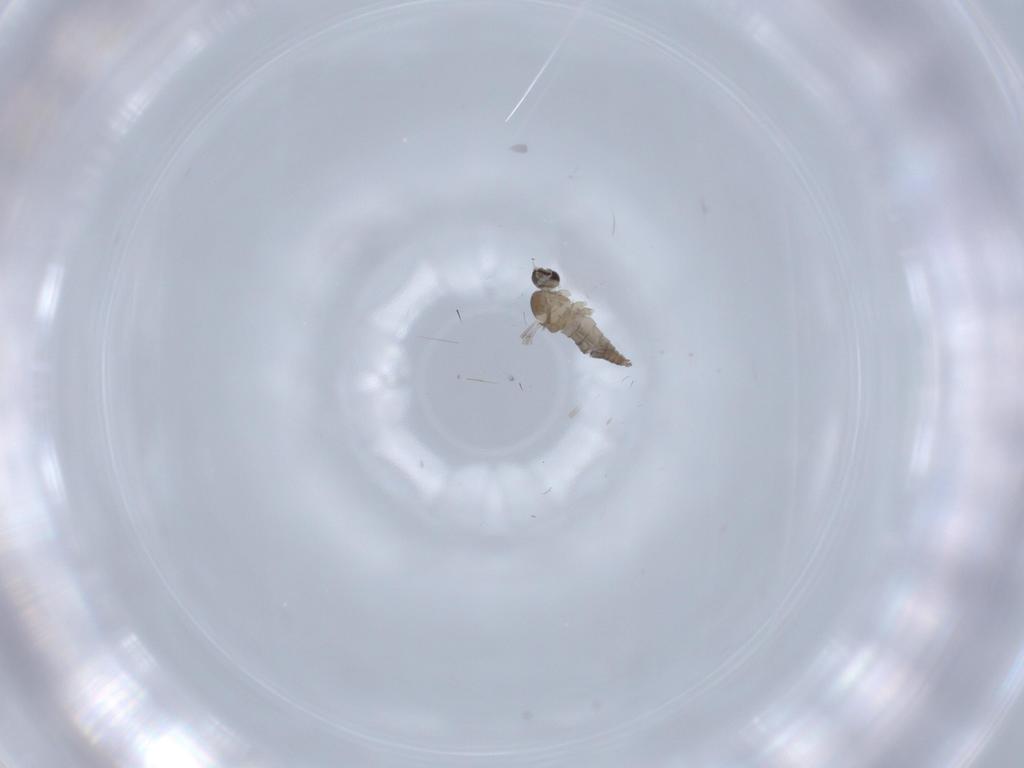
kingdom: Animalia
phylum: Arthropoda
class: Insecta
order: Diptera
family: Cecidomyiidae
